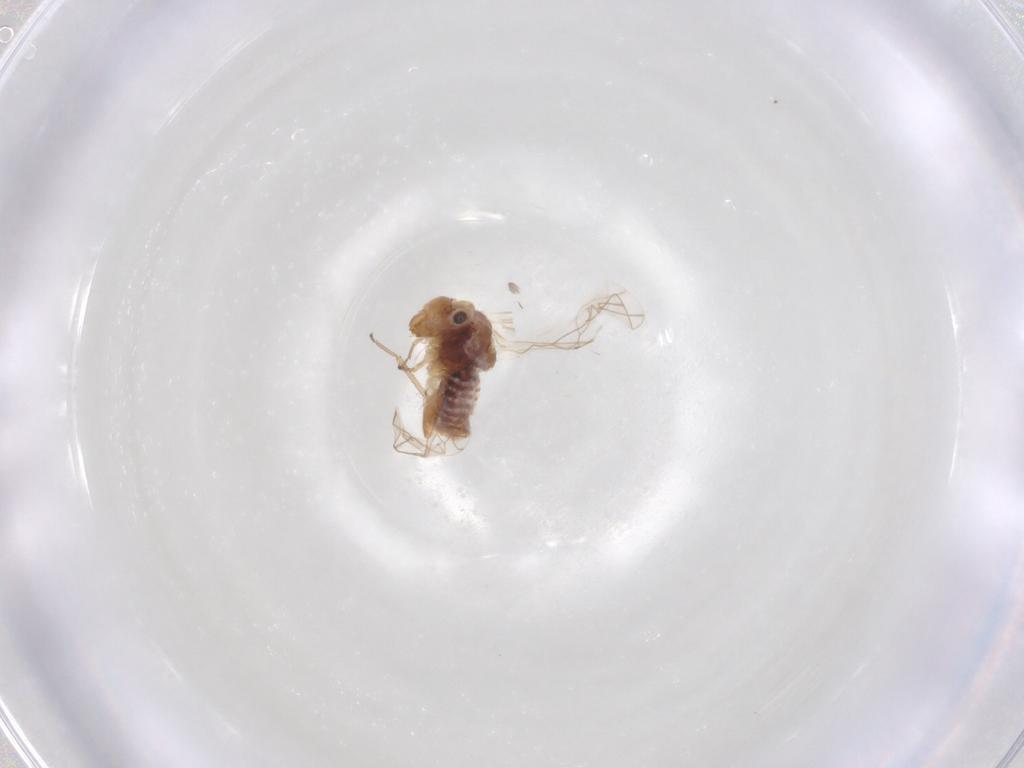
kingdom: Animalia
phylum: Arthropoda
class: Insecta
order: Psocodea
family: Lachesillidae
